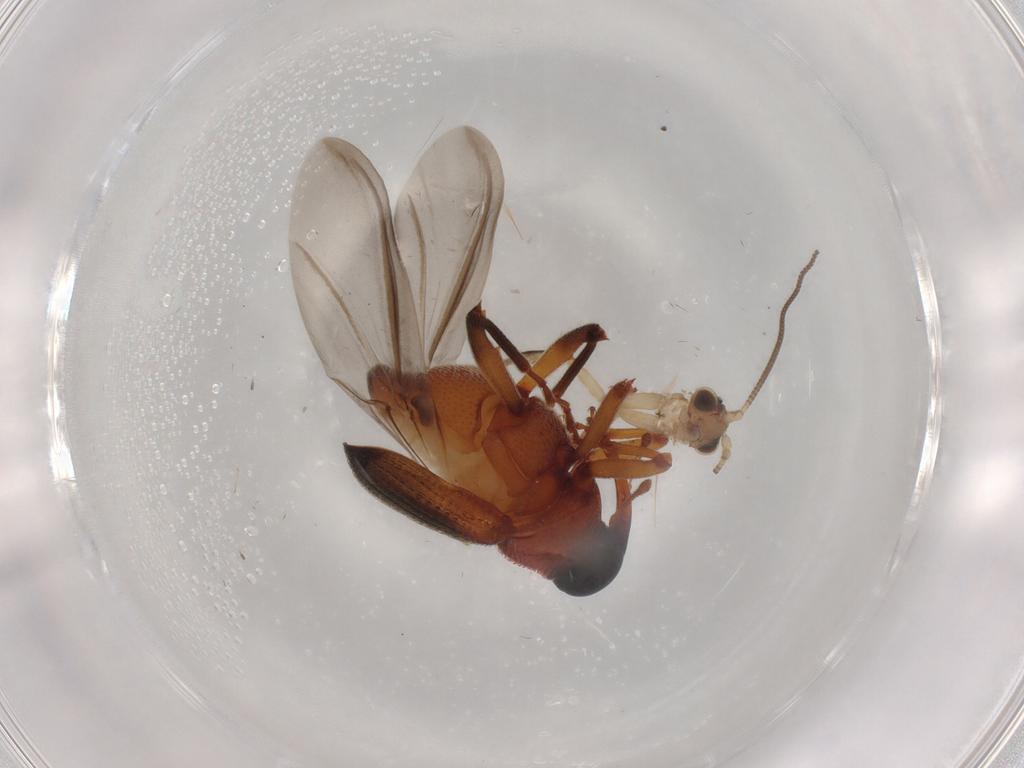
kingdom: Animalia
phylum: Arthropoda
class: Insecta
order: Coleoptera
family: Curculionidae
